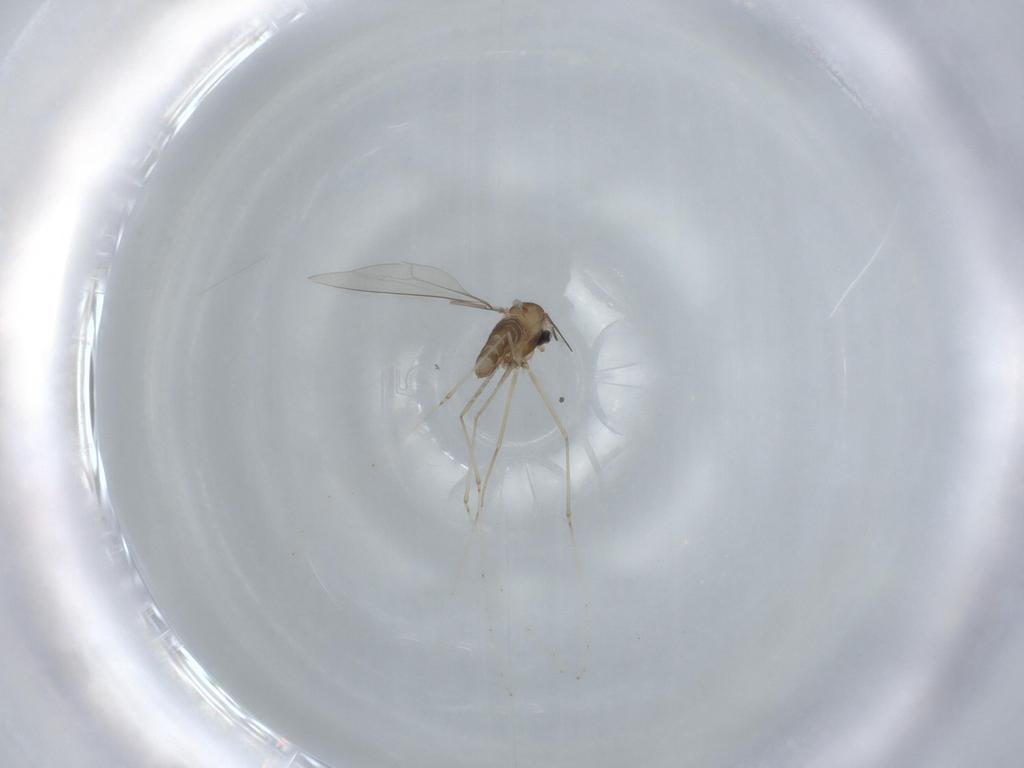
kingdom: Animalia
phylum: Arthropoda
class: Insecta
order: Diptera
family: Cecidomyiidae
